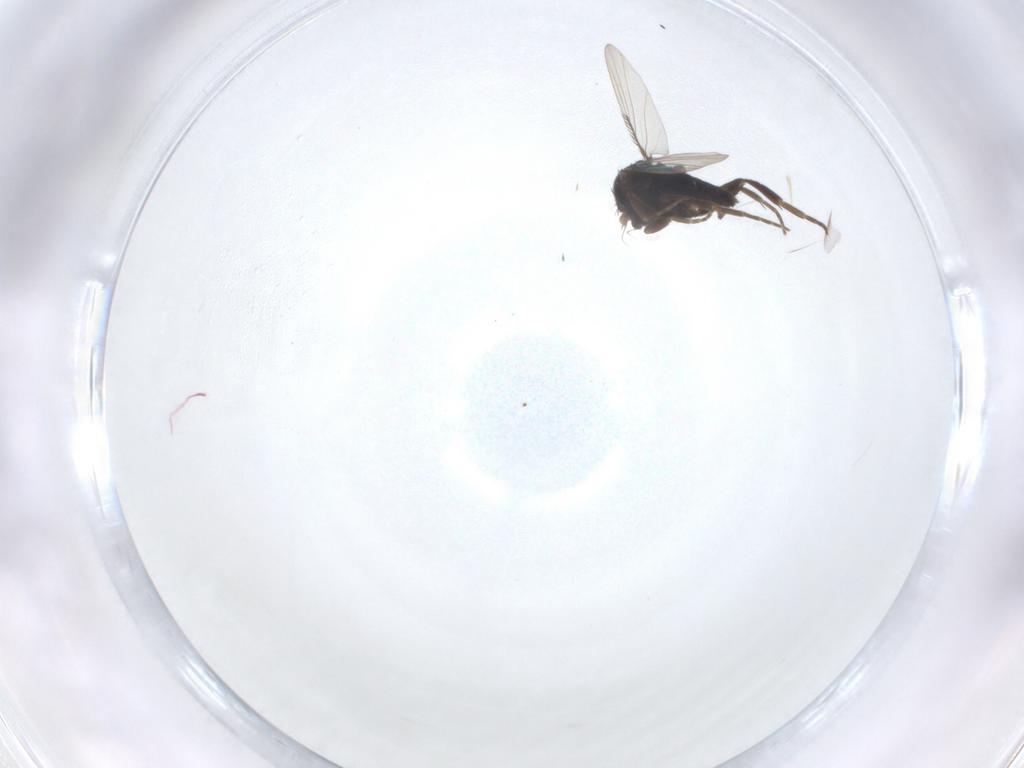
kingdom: Animalia
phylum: Arthropoda
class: Insecta
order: Diptera
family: Phoridae
